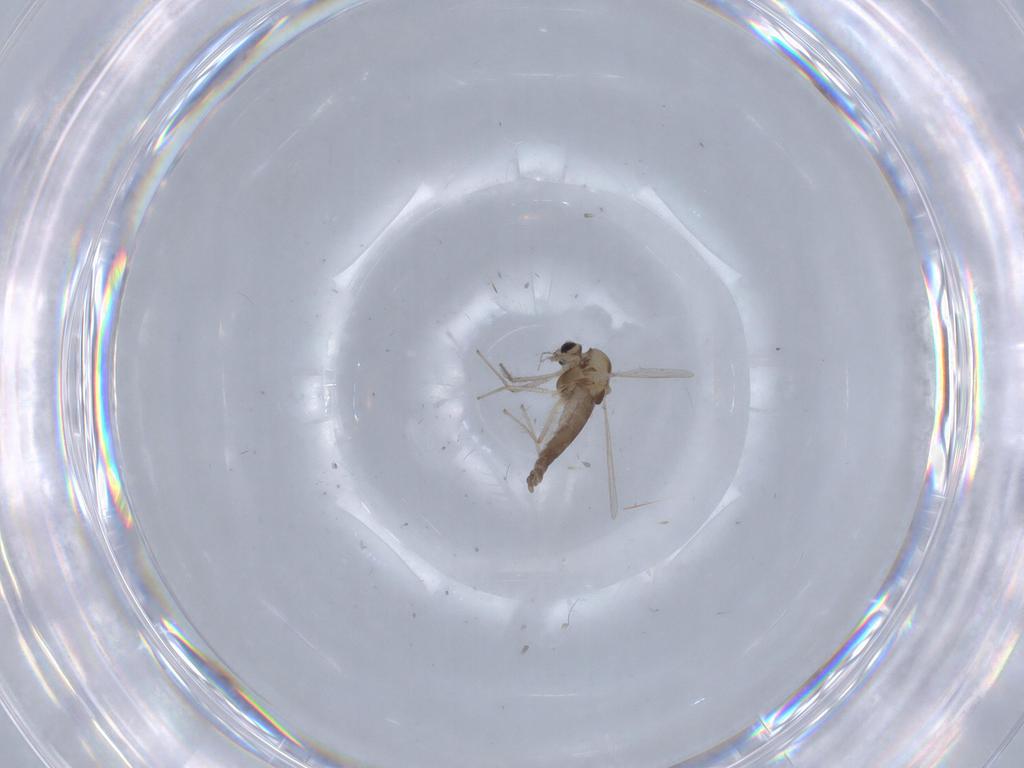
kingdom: Animalia
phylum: Arthropoda
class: Insecta
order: Diptera
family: Chironomidae
